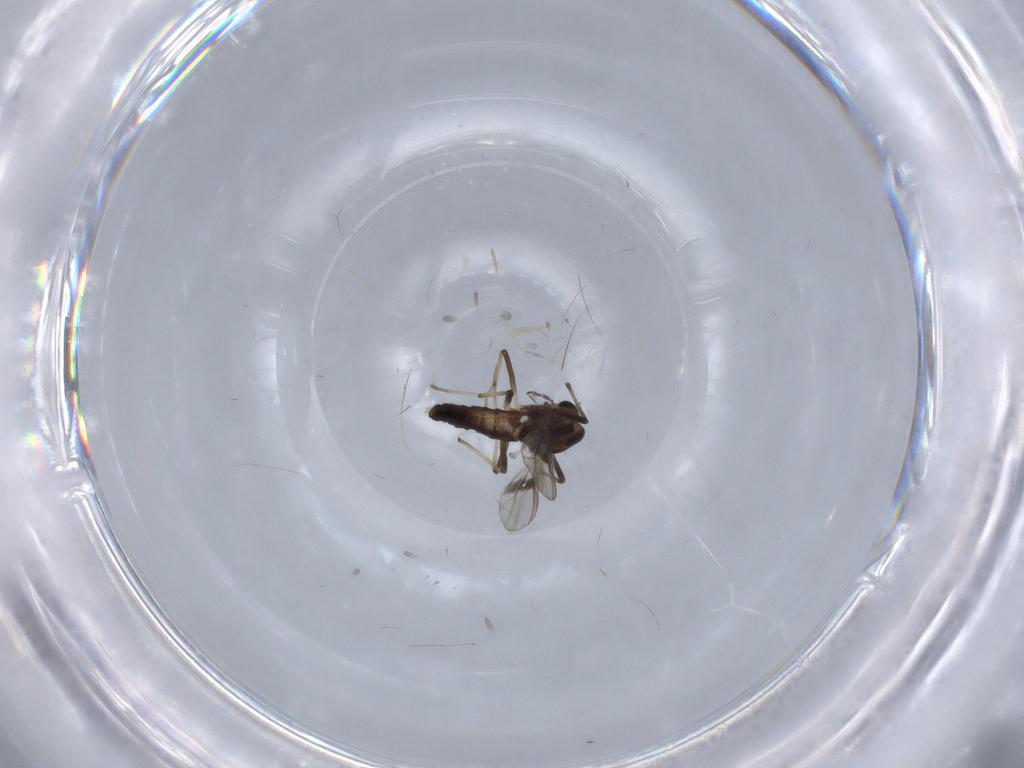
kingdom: Animalia
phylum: Arthropoda
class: Insecta
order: Diptera
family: Chironomidae
